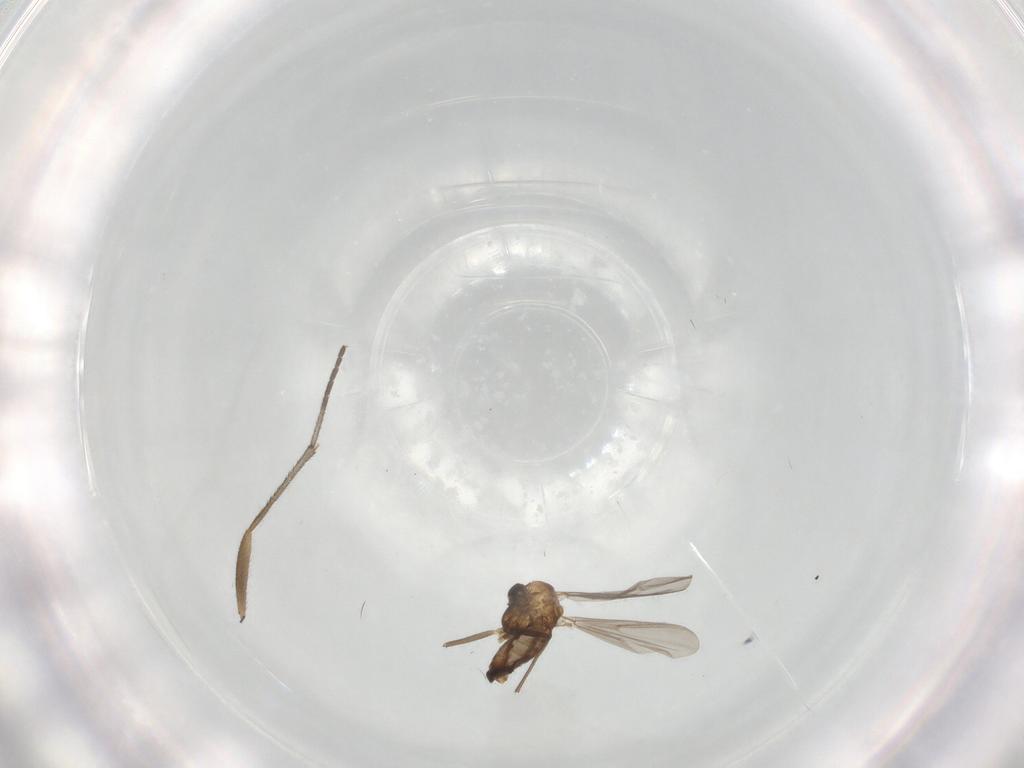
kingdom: Animalia
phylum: Arthropoda
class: Insecta
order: Diptera
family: Chironomidae
